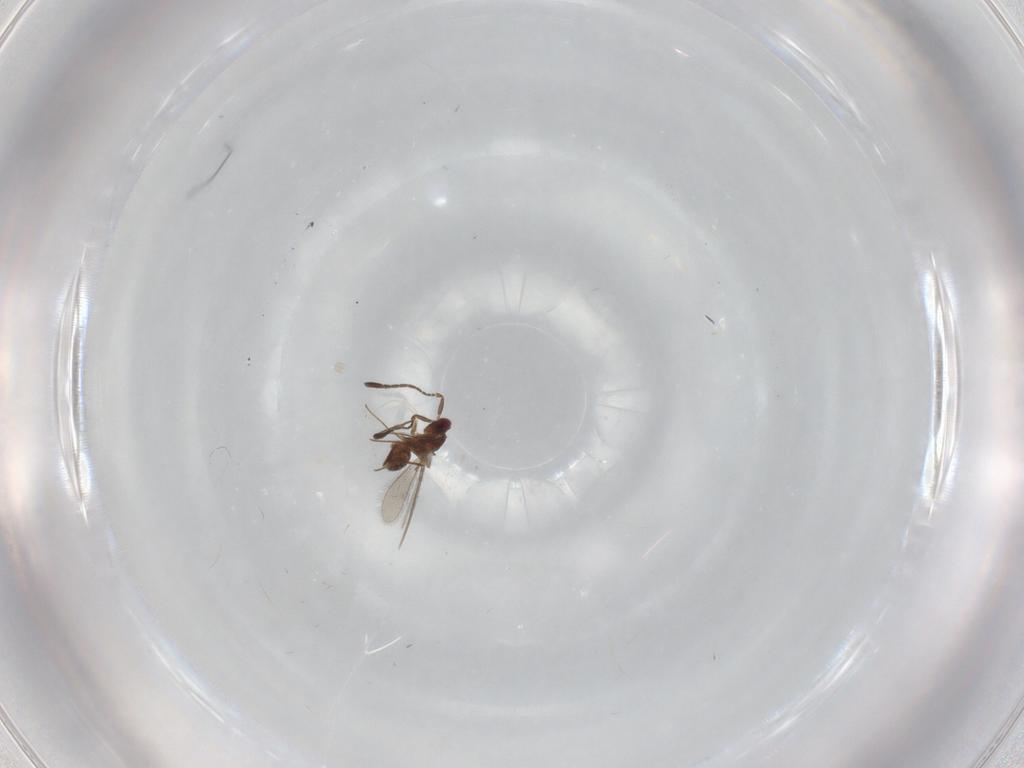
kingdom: Animalia
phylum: Arthropoda
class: Insecta
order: Hymenoptera
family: Mymaridae
